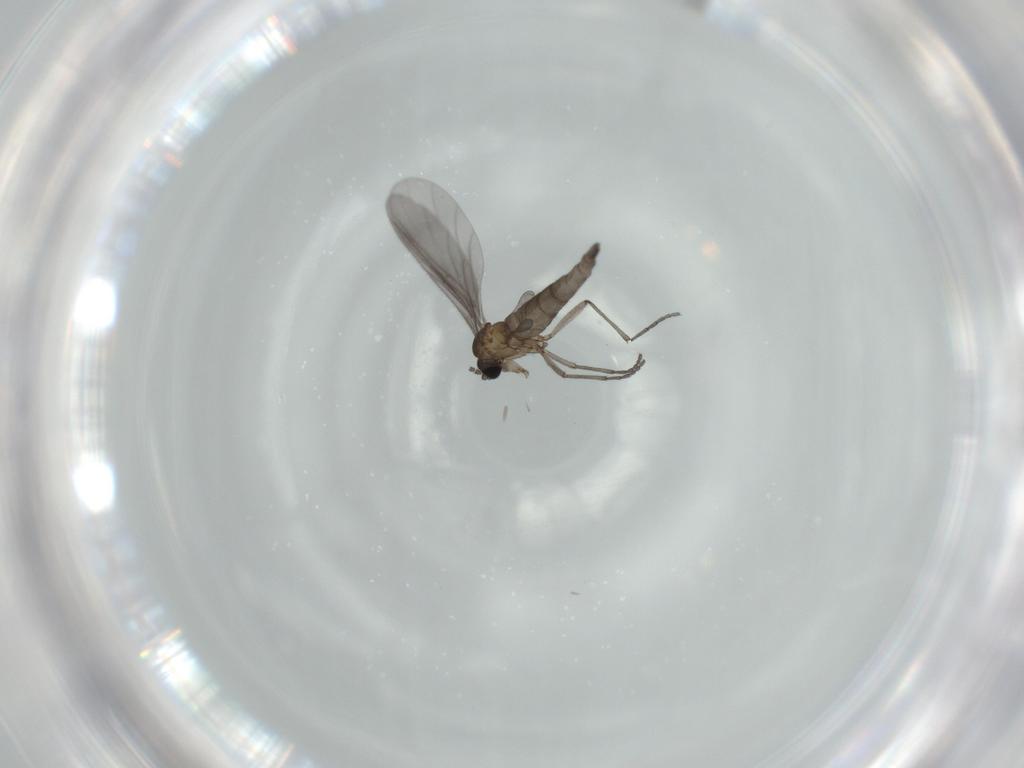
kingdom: Animalia
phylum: Arthropoda
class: Insecta
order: Diptera
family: Sciaridae
